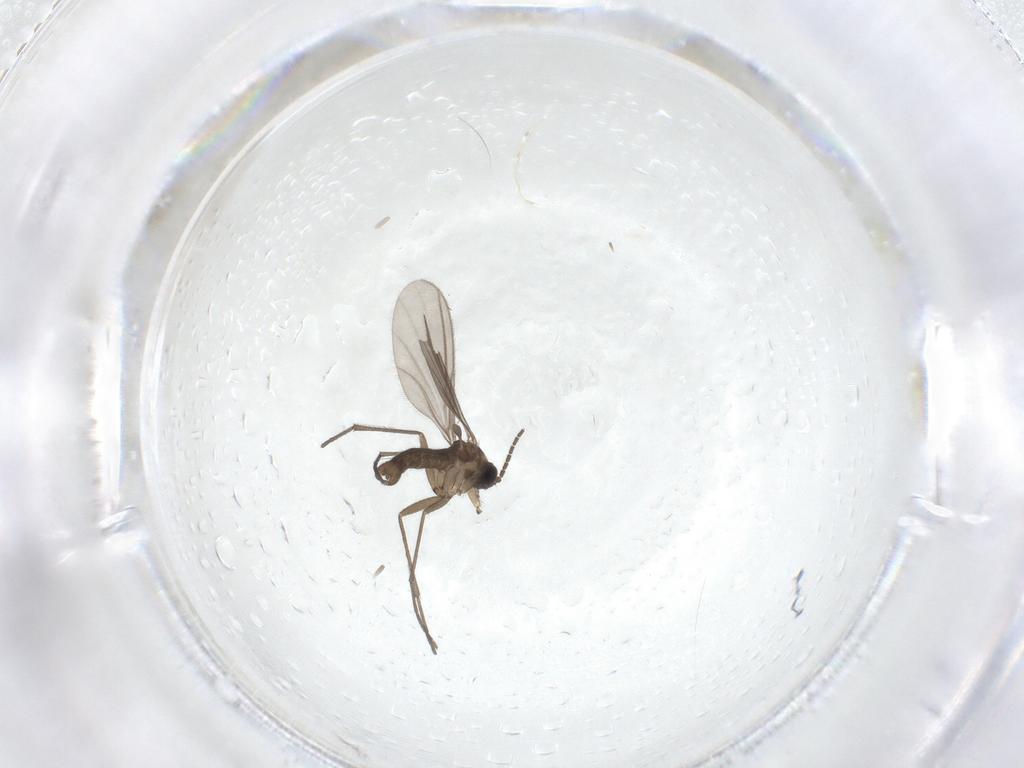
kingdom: Animalia
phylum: Arthropoda
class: Insecta
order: Diptera
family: Sciaridae
